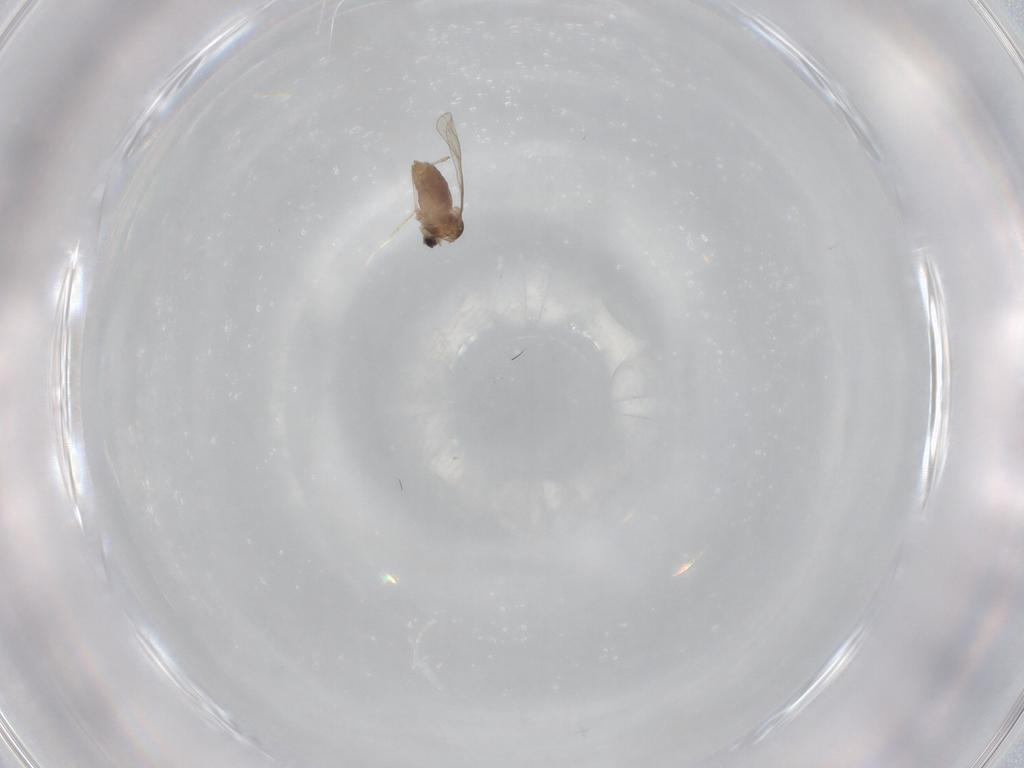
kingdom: Animalia
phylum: Arthropoda
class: Insecta
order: Diptera
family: Tabanidae
